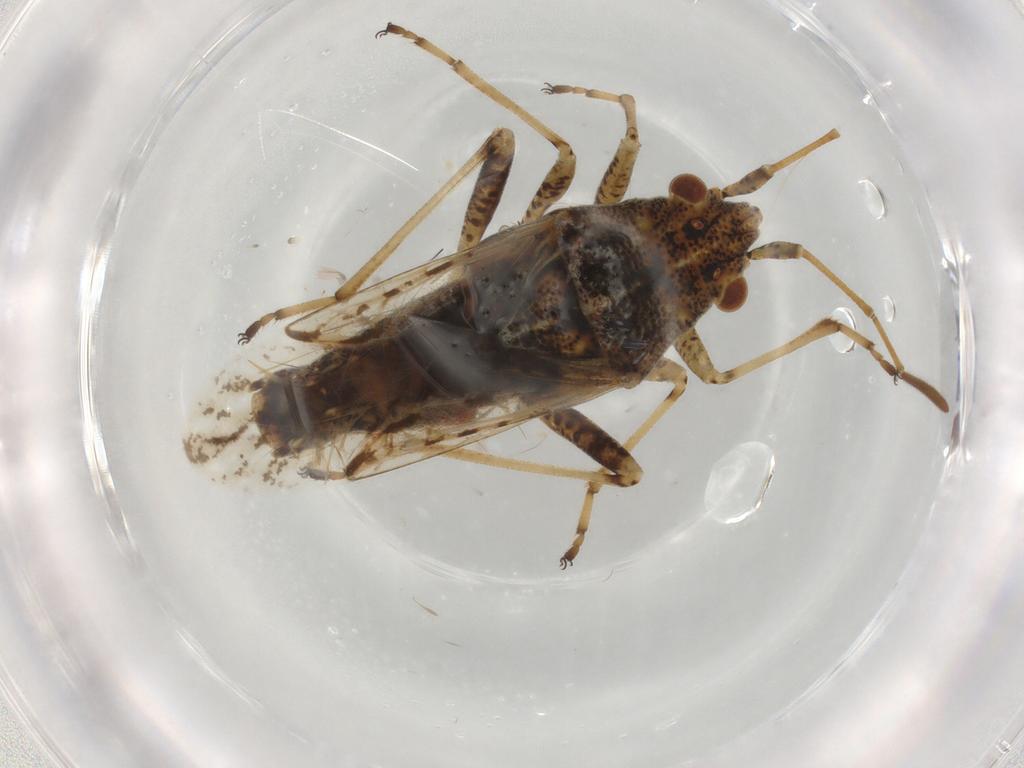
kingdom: Animalia
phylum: Arthropoda
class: Insecta
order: Hemiptera
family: Lygaeidae
